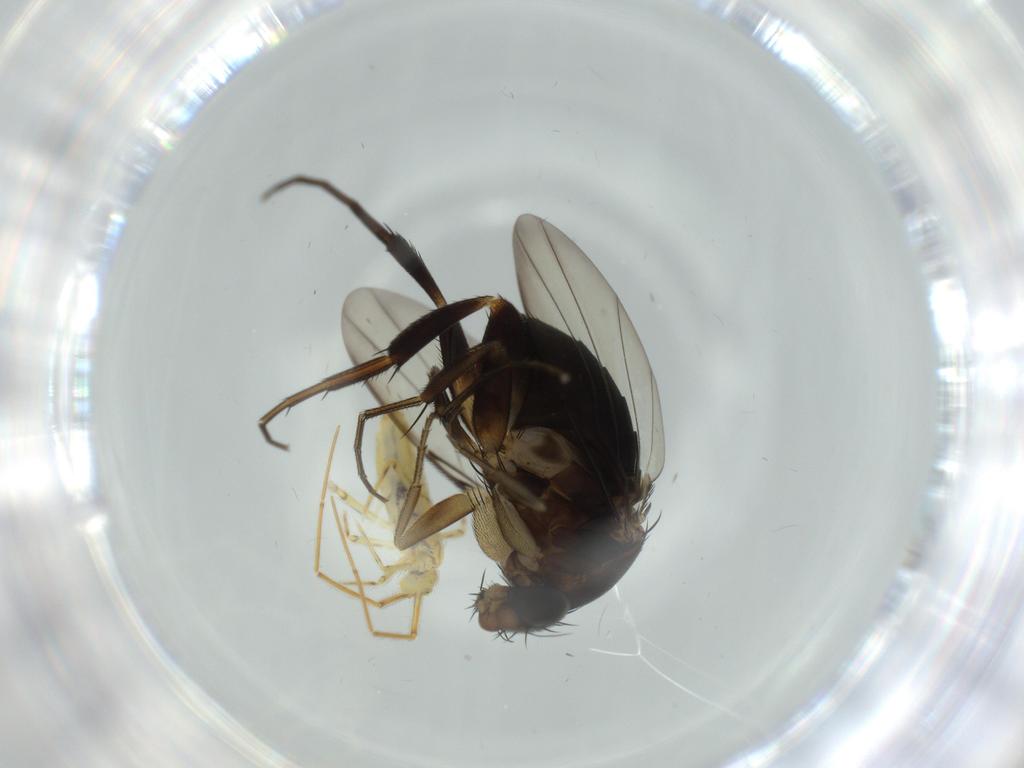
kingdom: Animalia
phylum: Arthropoda
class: Insecta
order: Diptera
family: Phoridae
